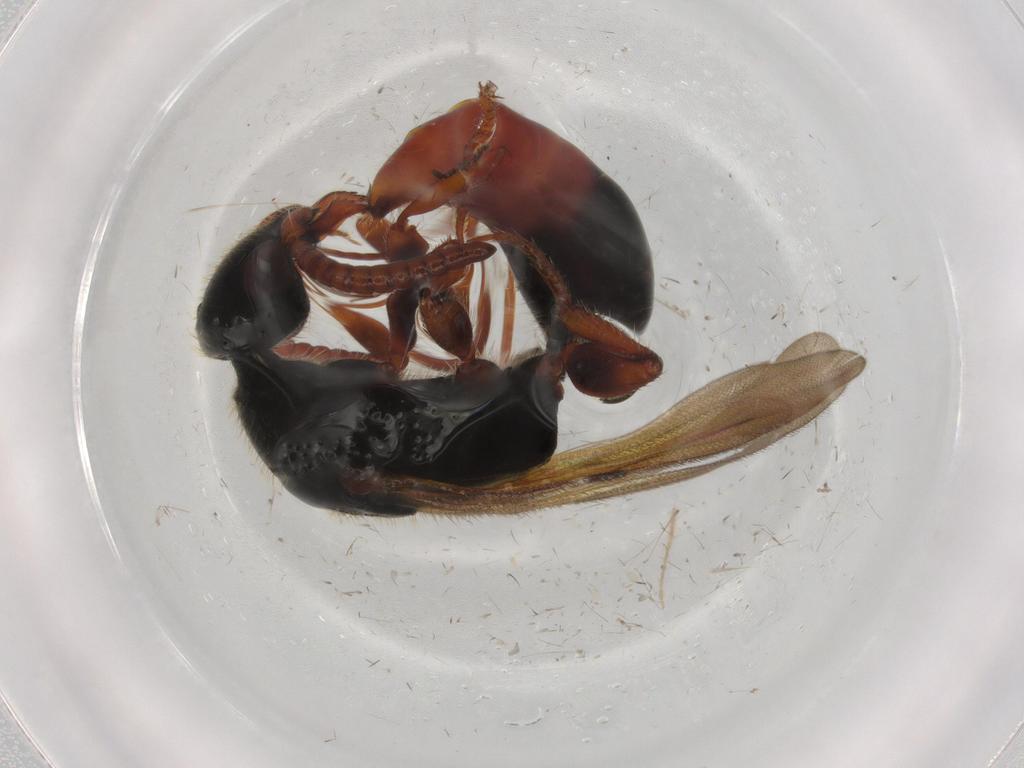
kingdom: Animalia
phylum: Arthropoda
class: Insecta
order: Hymenoptera
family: Bethylidae
